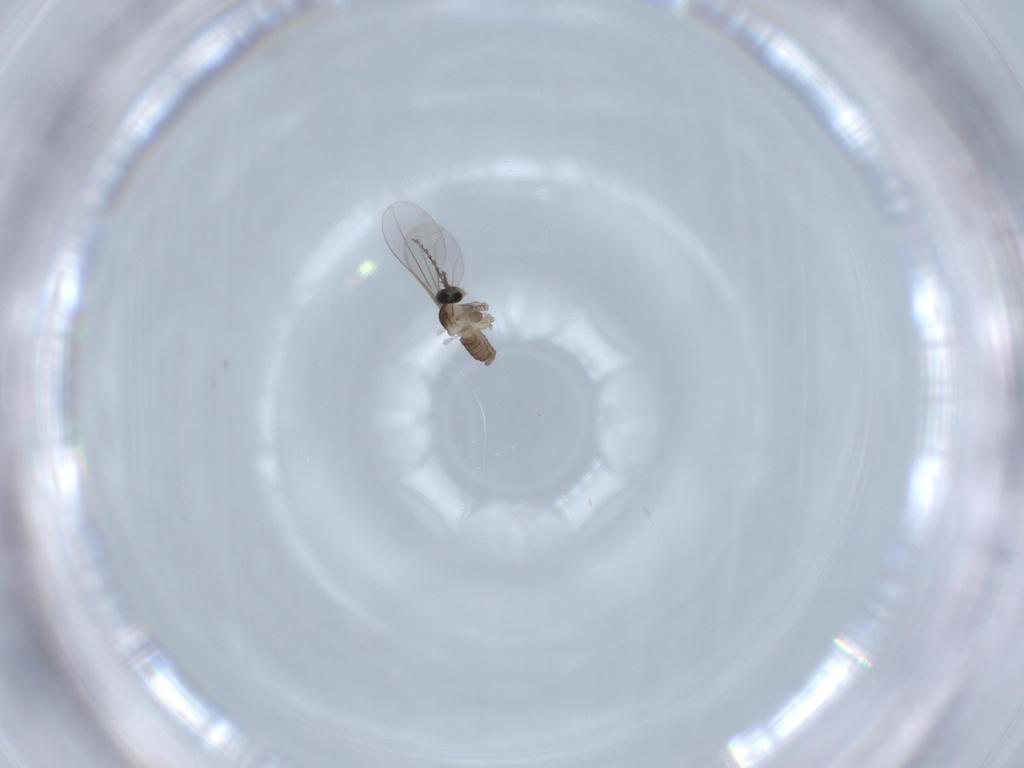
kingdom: Animalia
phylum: Arthropoda
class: Insecta
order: Diptera
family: Cecidomyiidae
